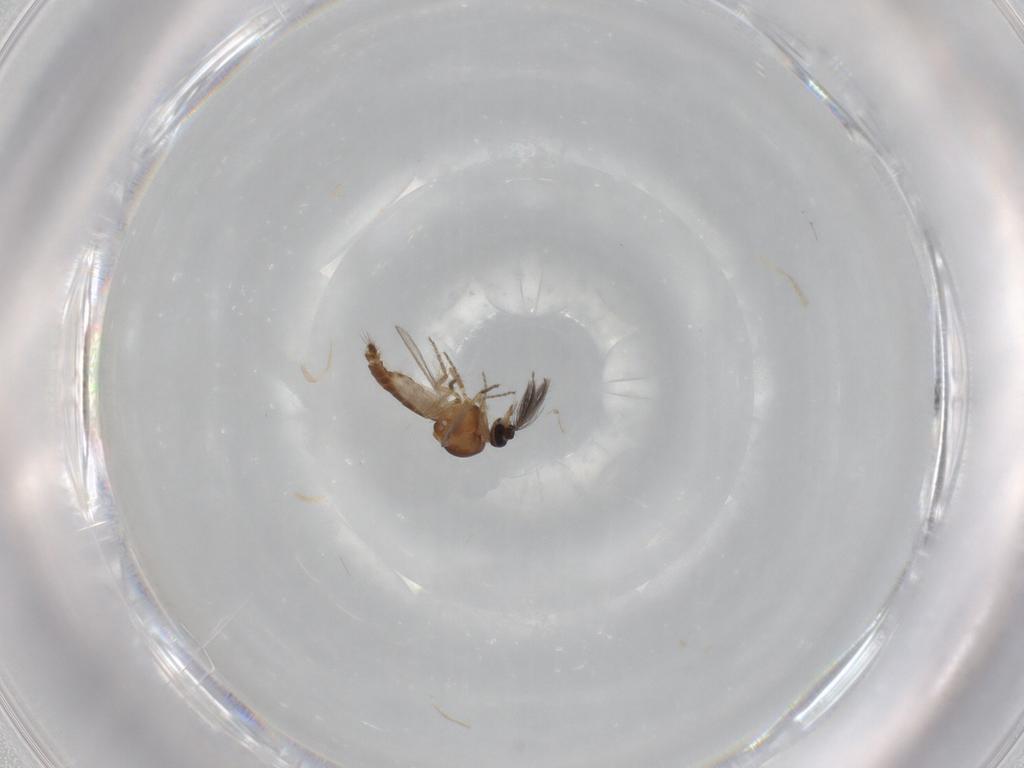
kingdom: Animalia
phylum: Arthropoda
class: Insecta
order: Diptera
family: Ceratopogonidae
